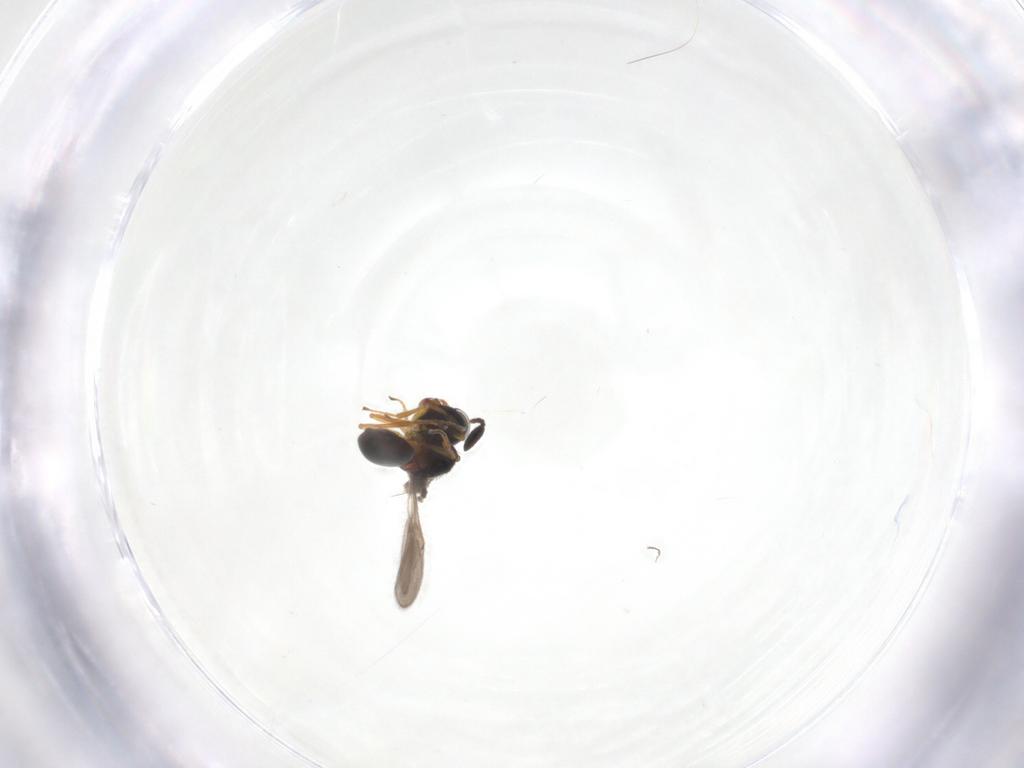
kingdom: Animalia
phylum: Arthropoda
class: Insecta
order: Hymenoptera
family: Scelionidae
